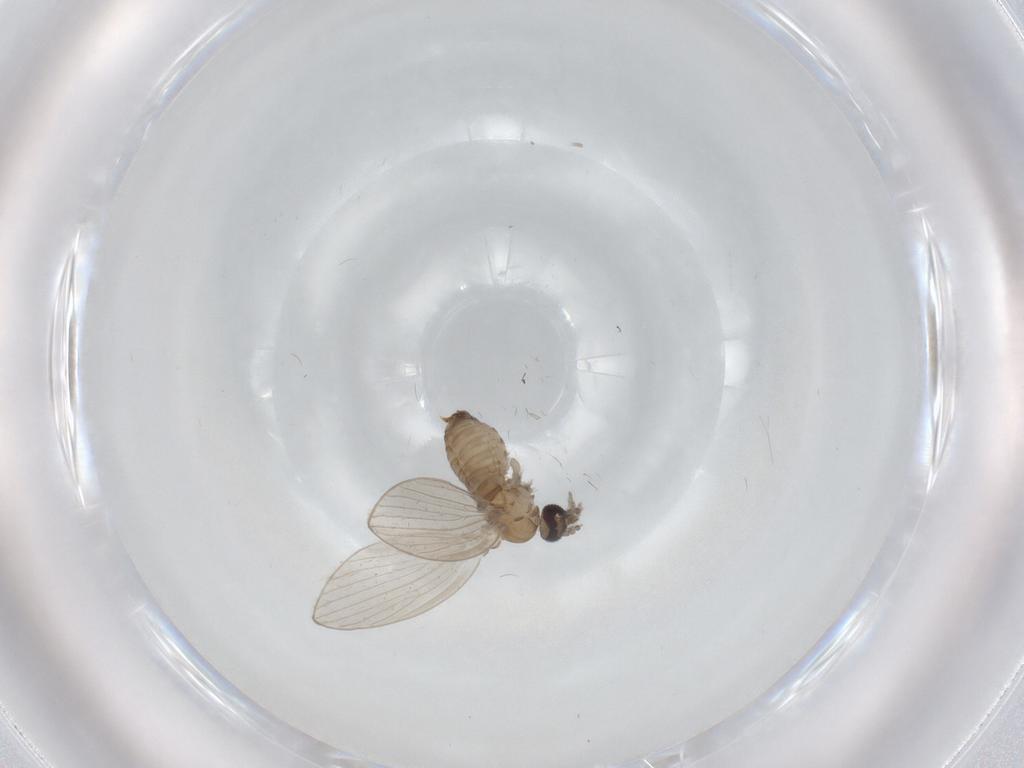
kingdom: Animalia
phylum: Arthropoda
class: Insecta
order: Diptera
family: Psychodidae
